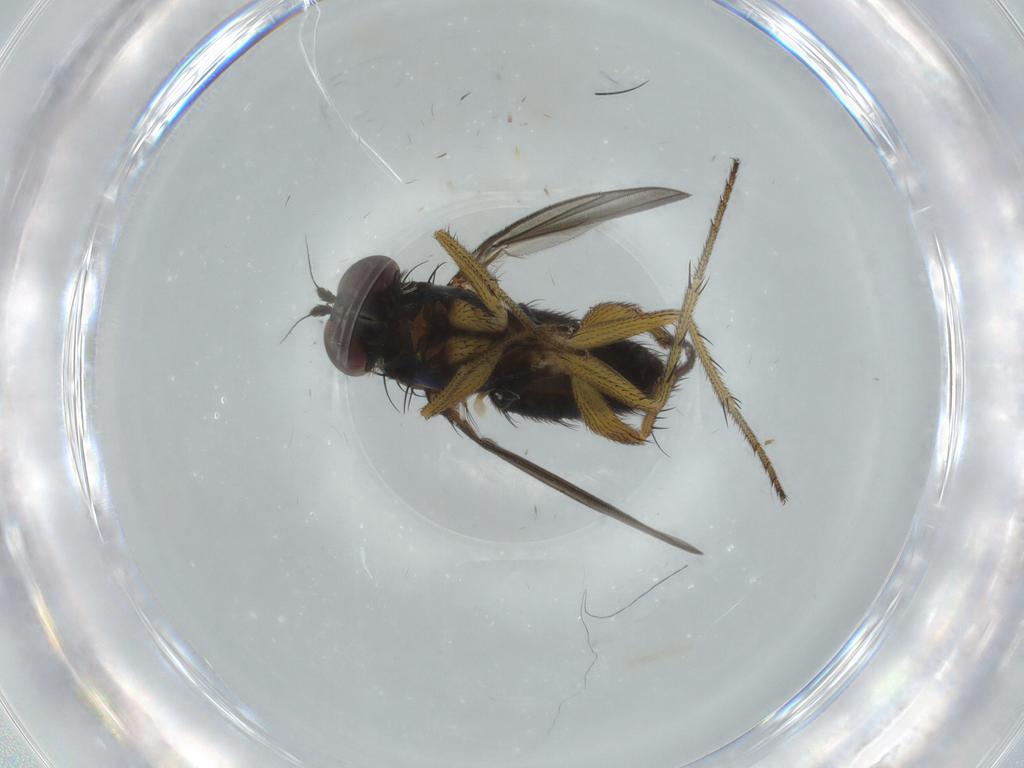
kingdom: Animalia
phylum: Arthropoda
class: Insecta
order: Diptera
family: Dolichopodidae
